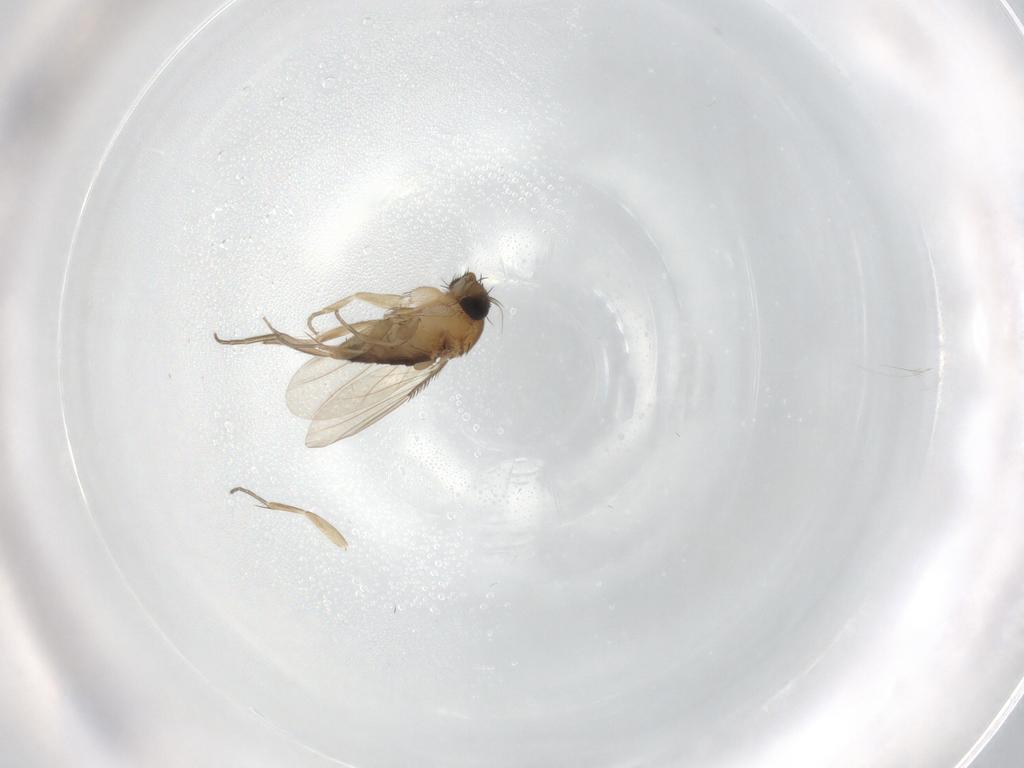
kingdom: Animalia
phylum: Arthropoda
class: Insecta
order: Diptera
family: Phoridae
